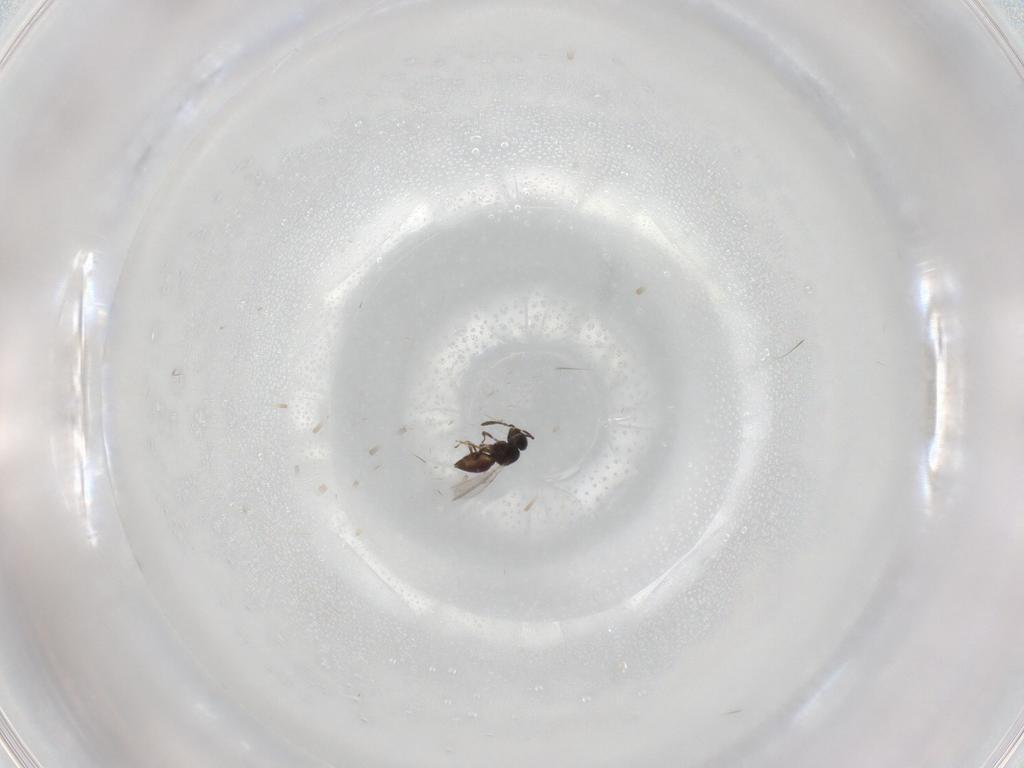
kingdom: Animalia
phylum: Arthropoda
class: Insecta
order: Hymenoptera
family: Scelionidae
